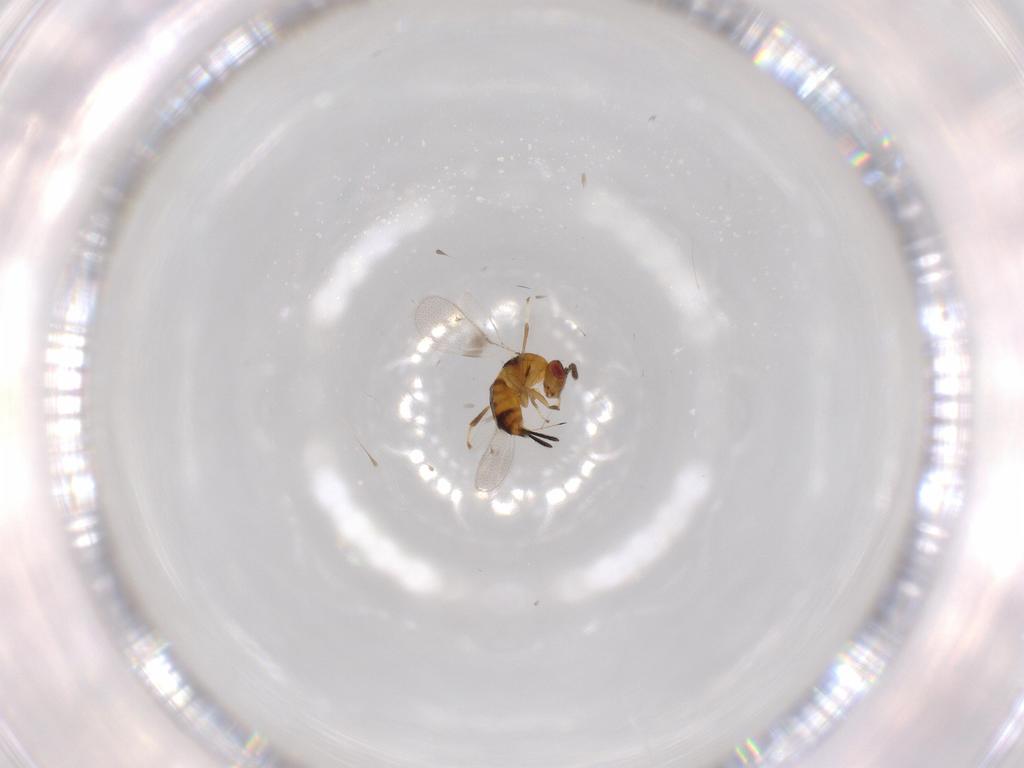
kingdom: Animalia
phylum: Arthropoda
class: Insecta
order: Hymenoptera
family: Torymidae
